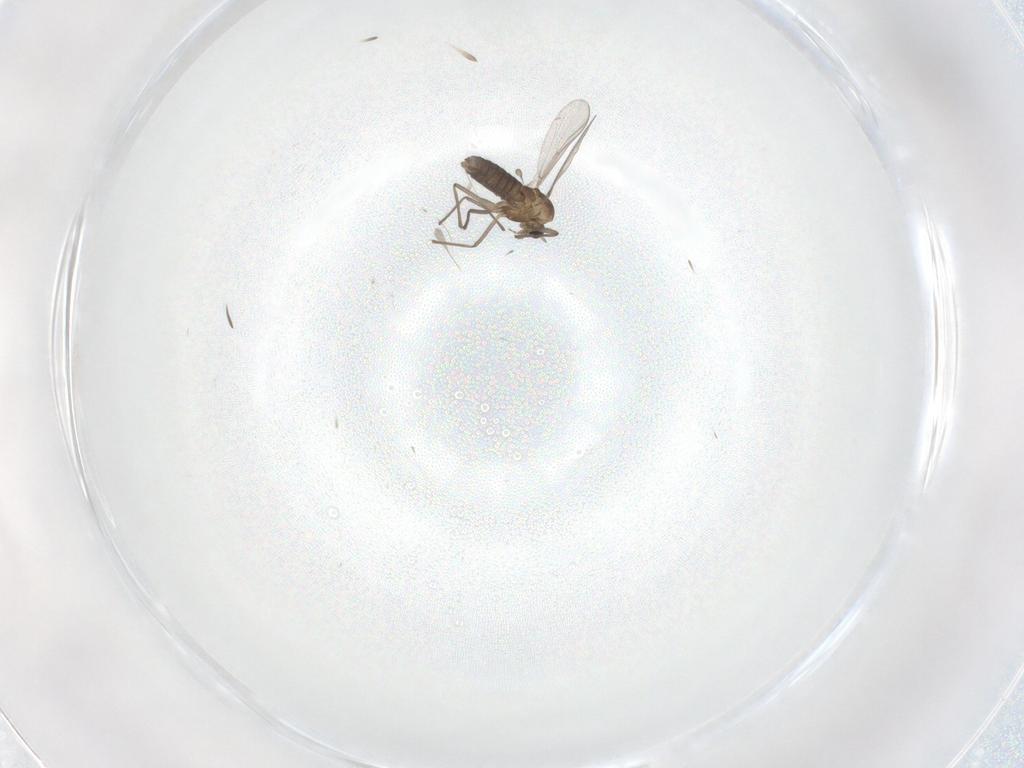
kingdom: Animalia
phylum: Arthropoda
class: Insecta
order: Diptera
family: Chironomidae
